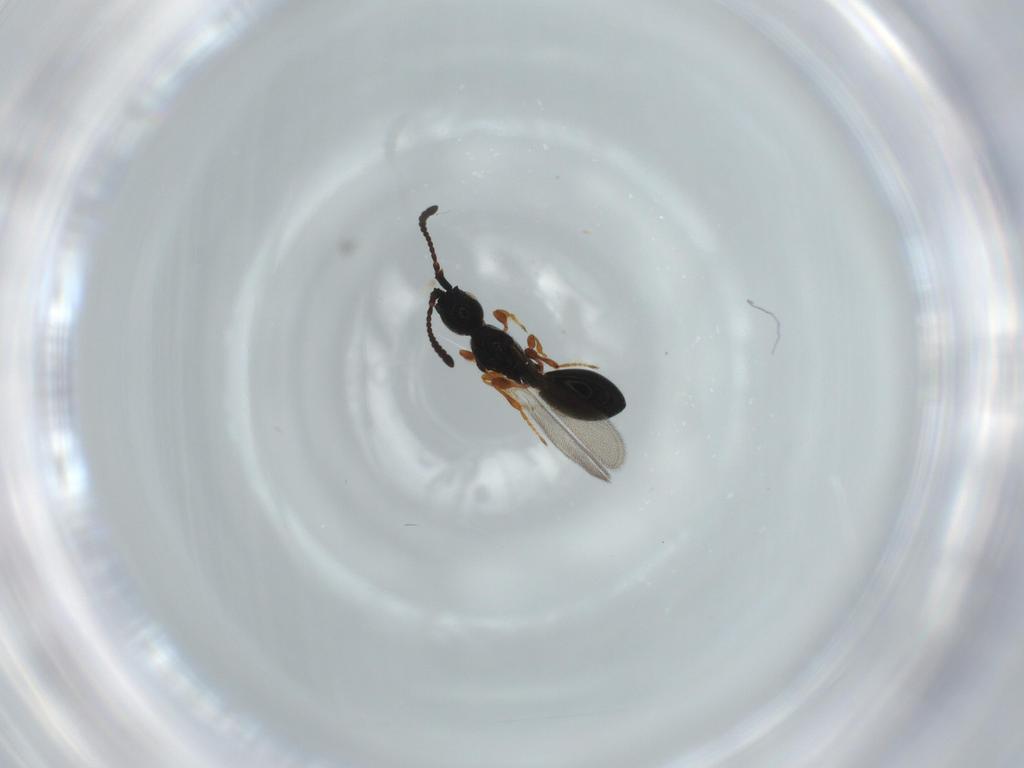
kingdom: Animalia
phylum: Arthropoda
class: Insecta
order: Hymenoptera
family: Diapriidae
